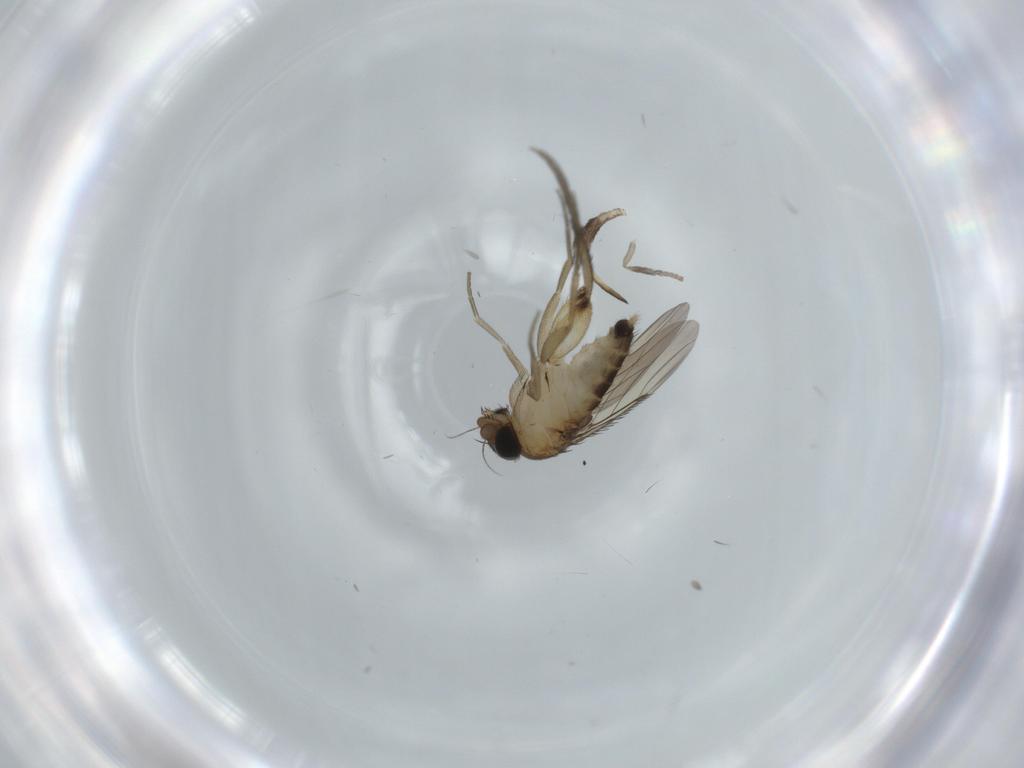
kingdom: Animalia
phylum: Arthropoda
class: Insecta
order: Diptera
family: Phoridae
